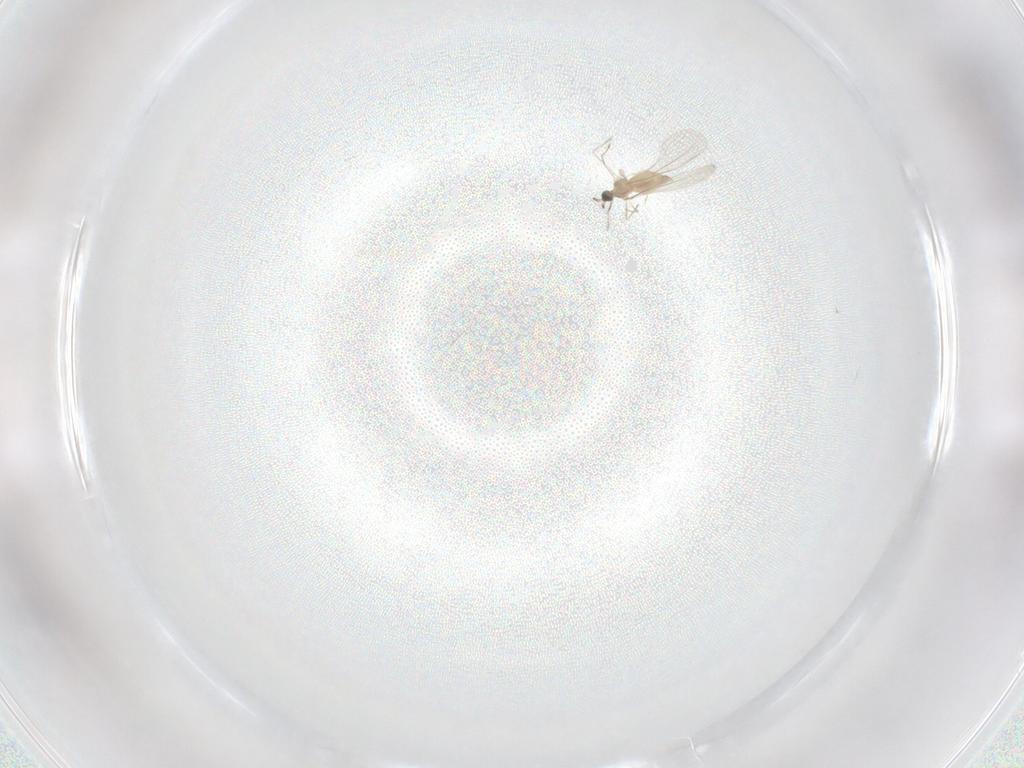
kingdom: Animalia
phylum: Arthropoda
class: Insecta
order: Diptera
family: Cecidomyiidae
